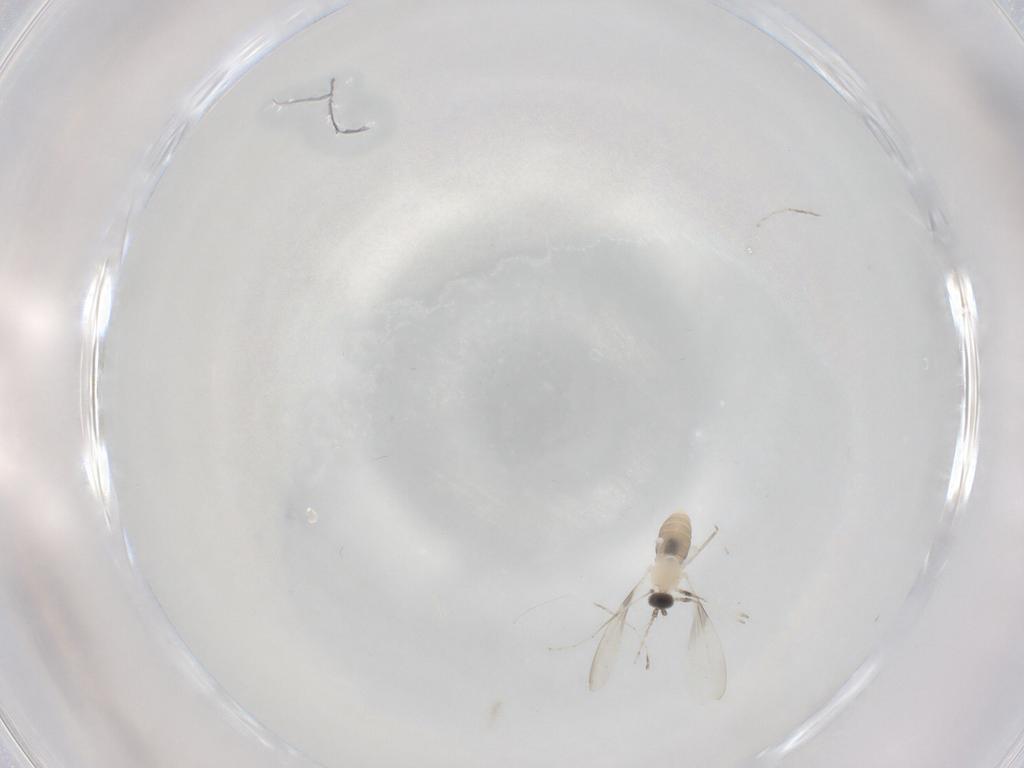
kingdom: Animalia
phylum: Arthropoda
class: Insecta
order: Diptera
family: Cecidomyiidae
